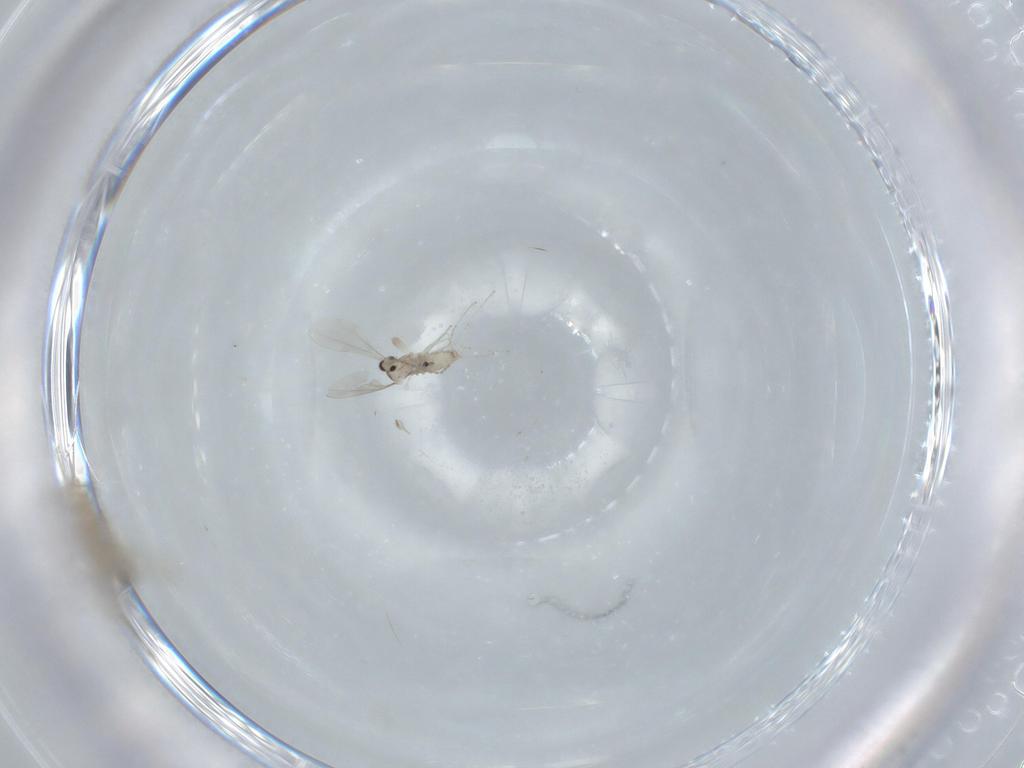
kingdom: Animalia
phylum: Arthropoda
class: Insecta
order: Diptera
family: Cecidomyiidae
